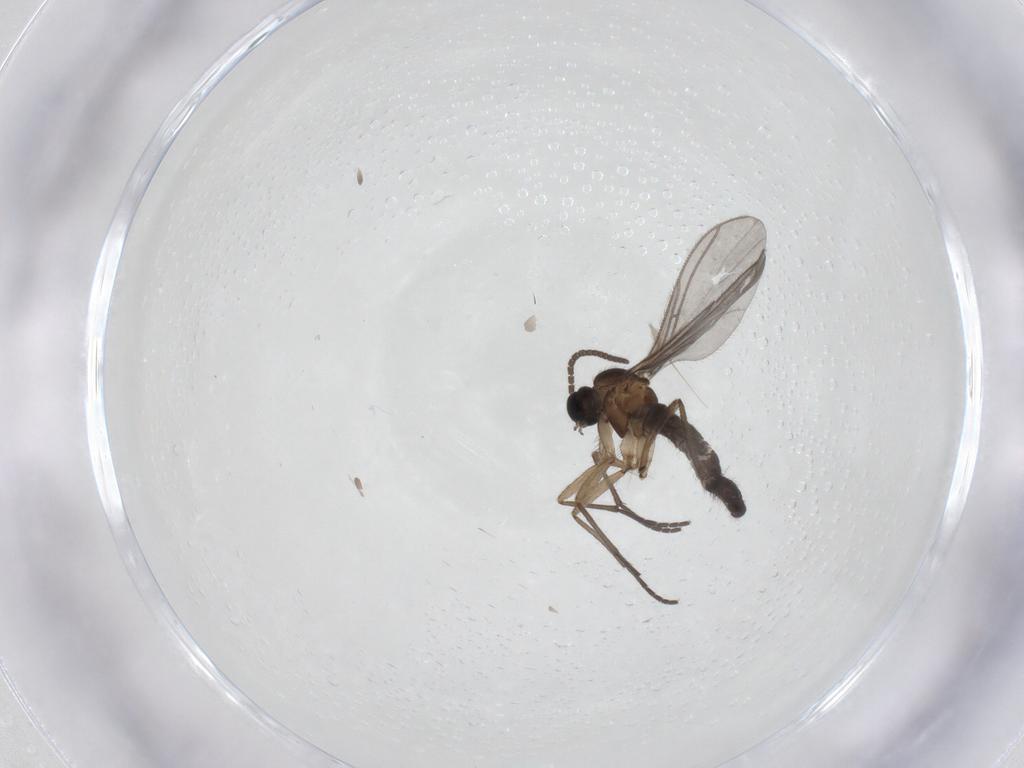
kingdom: Animalia
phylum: Arthropoda
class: Insecta
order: Diptera
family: Sciaridae
